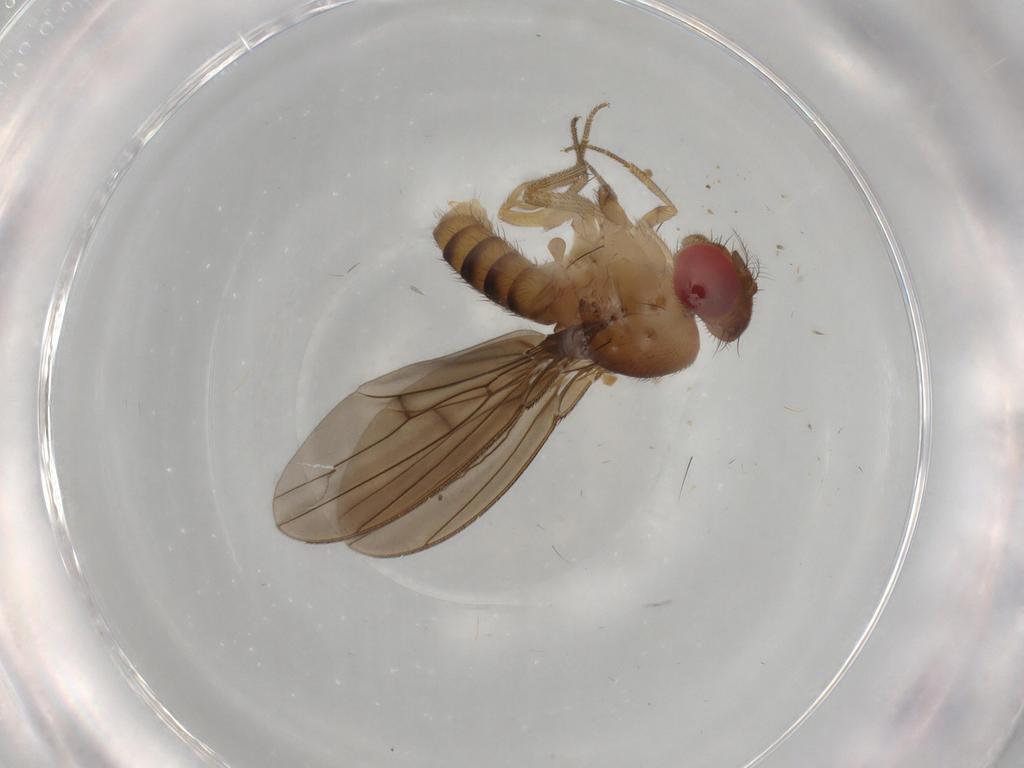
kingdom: Animalia
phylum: Arthropoda
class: Insecta
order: Diptera
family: Drosophilidae
